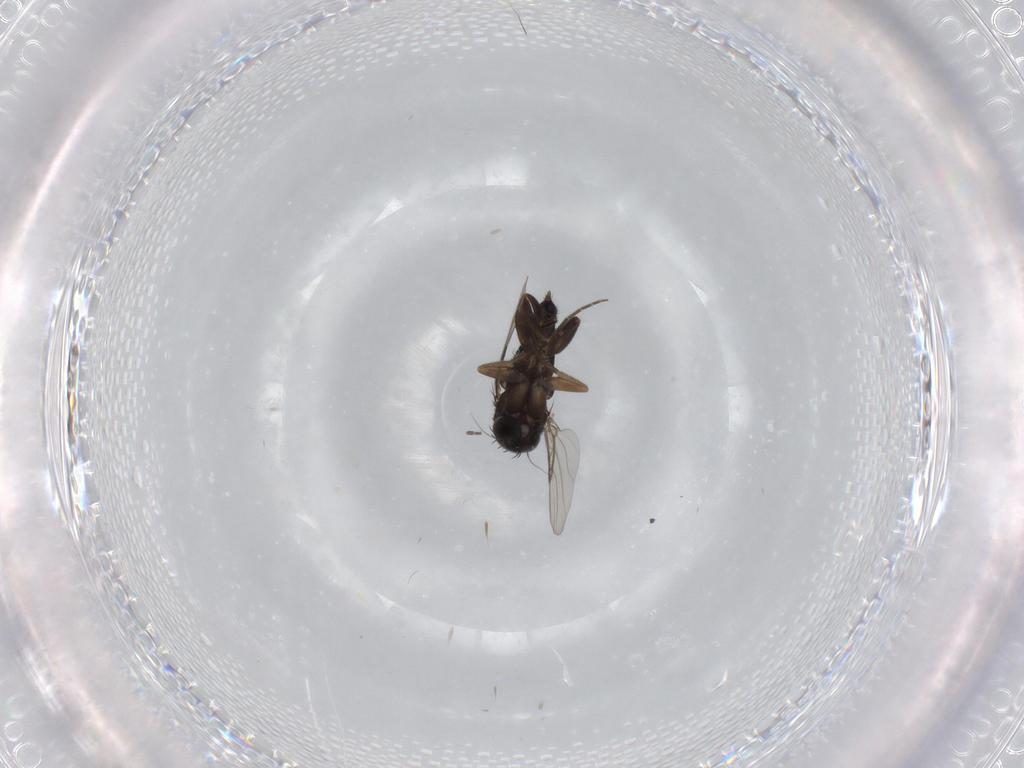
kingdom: Animalia
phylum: Arthropoda
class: Insecta
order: Diptera
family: Phoridae
